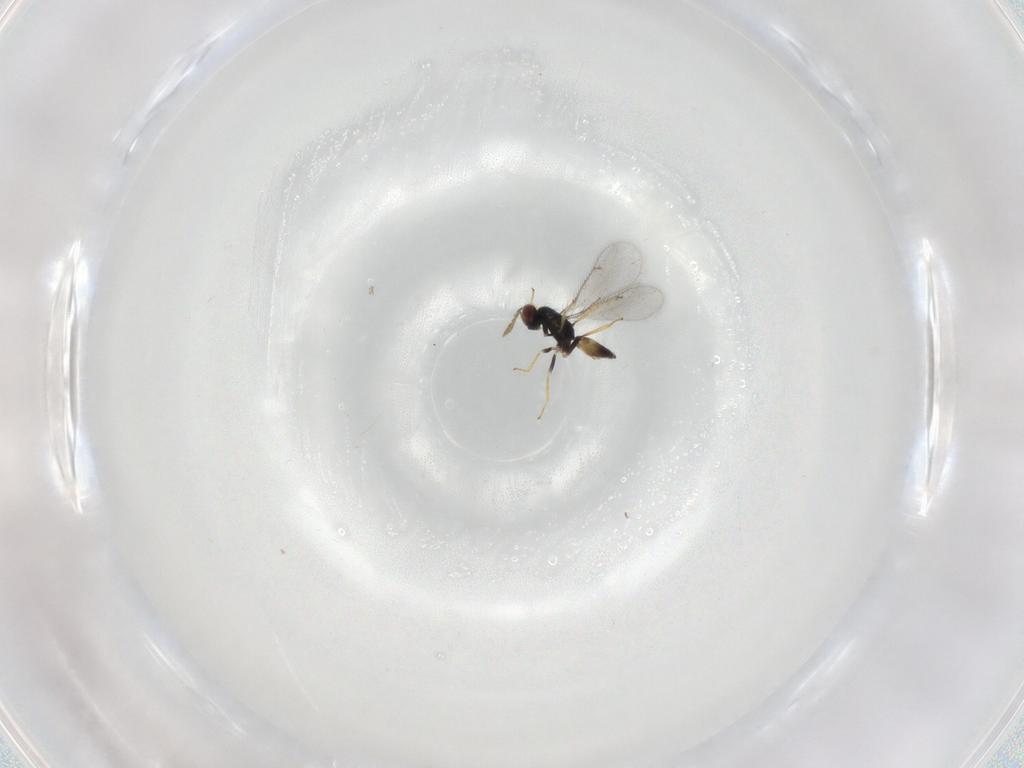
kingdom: Animalia
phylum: Arthropoda
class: Insecta
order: Hymenoptera
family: Eulophidae
